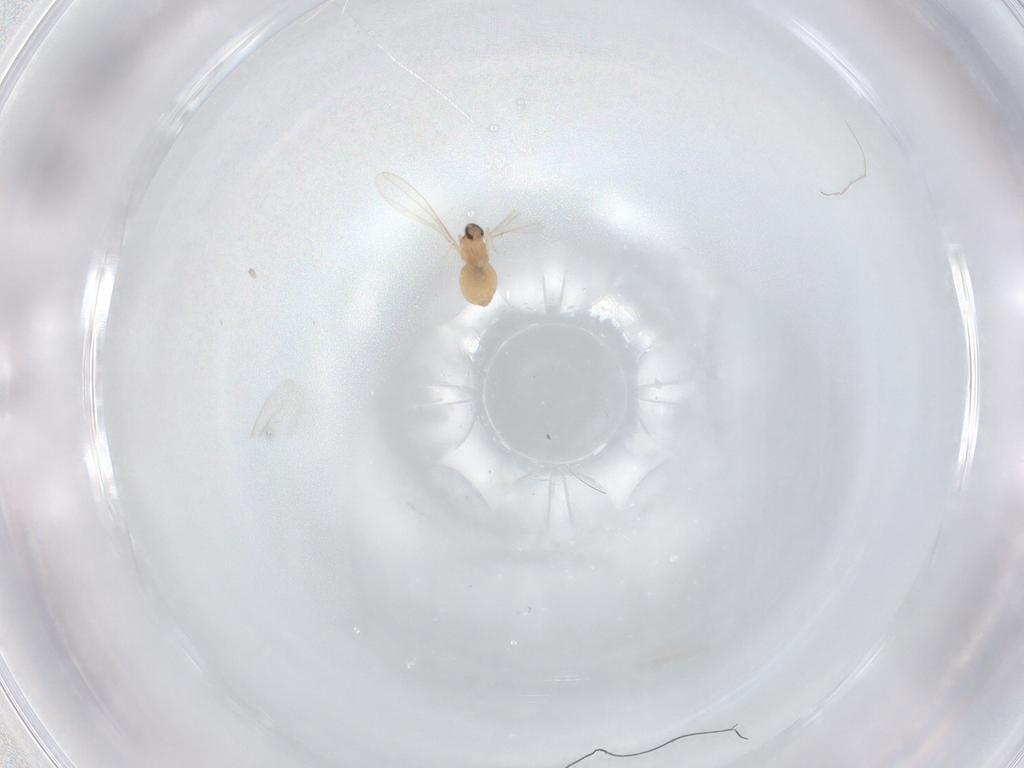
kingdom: Animalia
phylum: Arthropoda
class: Insecta
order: Diptera
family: Cecidomyiidae
